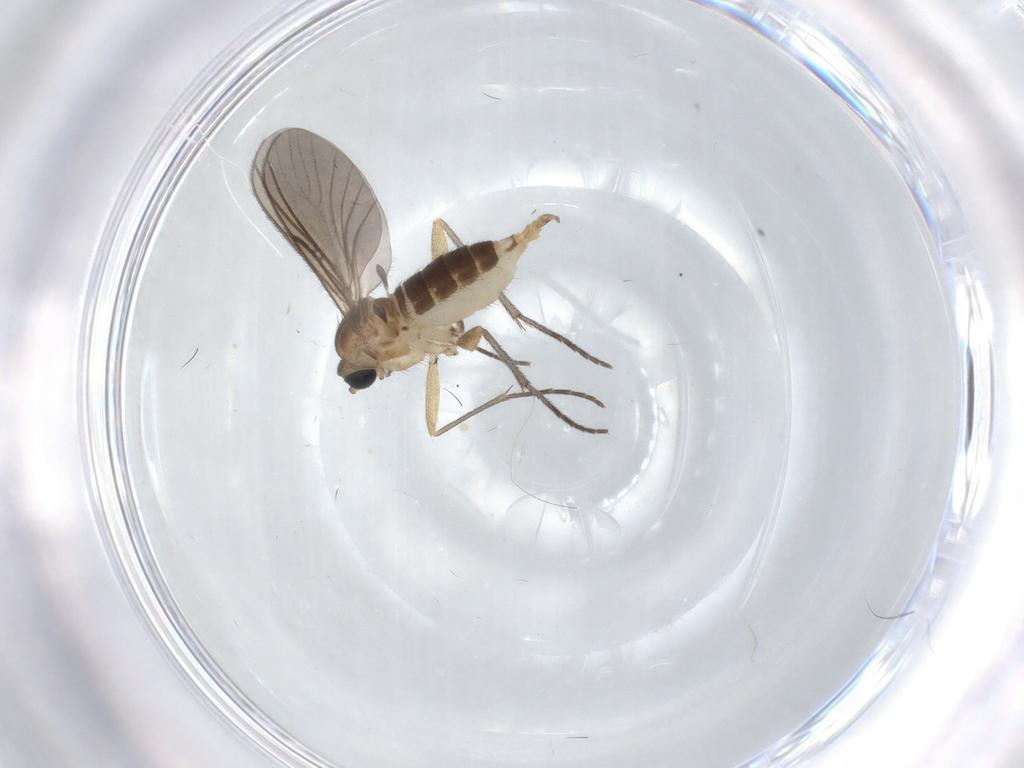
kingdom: Animalia
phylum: Arthropoda
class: Insecta
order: Diptera
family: Sciaridae
